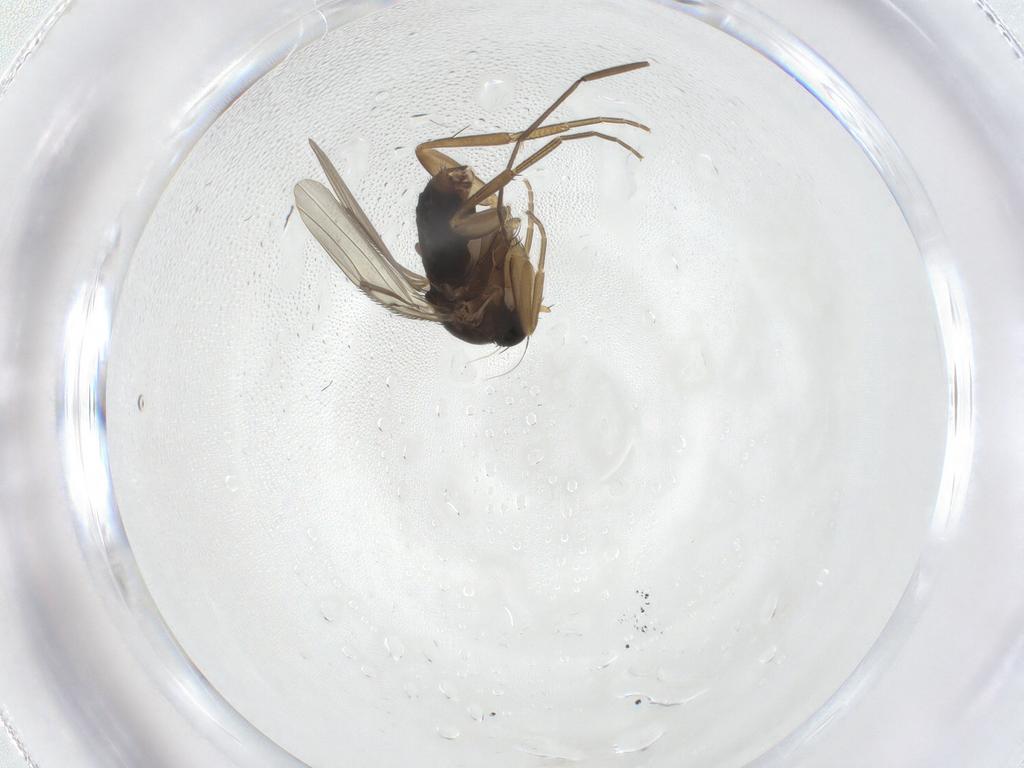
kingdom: Animalia
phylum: Arthropoda
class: Insecta
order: Diptera
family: Phoridae
